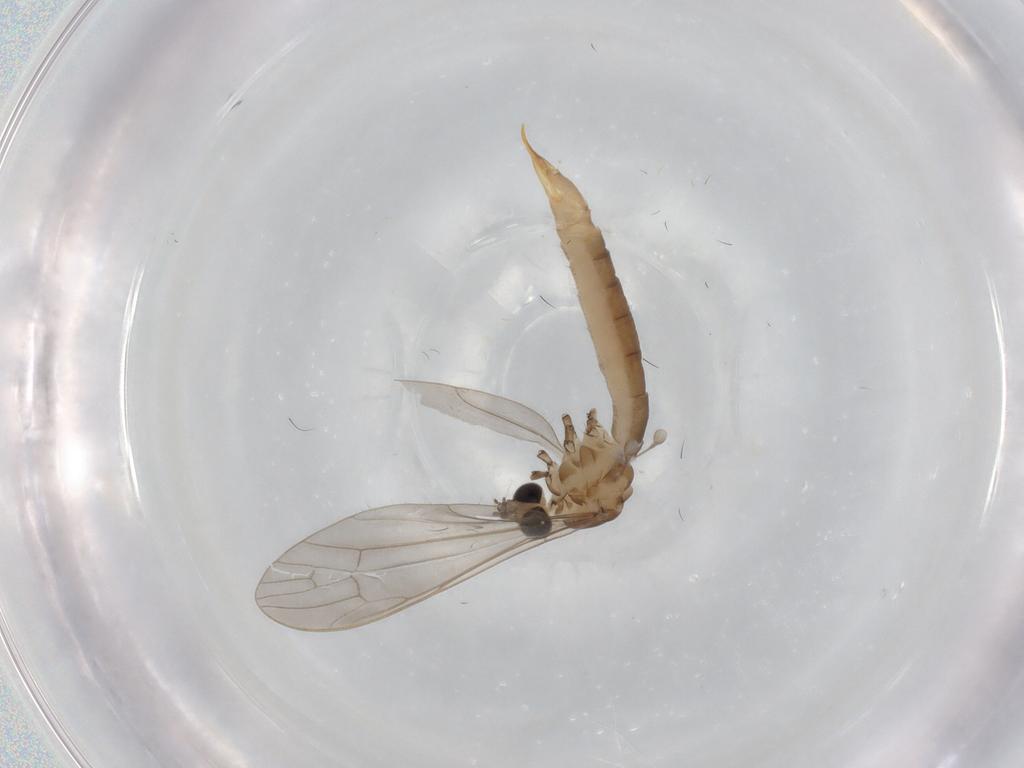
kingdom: Animalia
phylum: Arthropoda
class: Insecta
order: Diptera
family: Limoniidae
